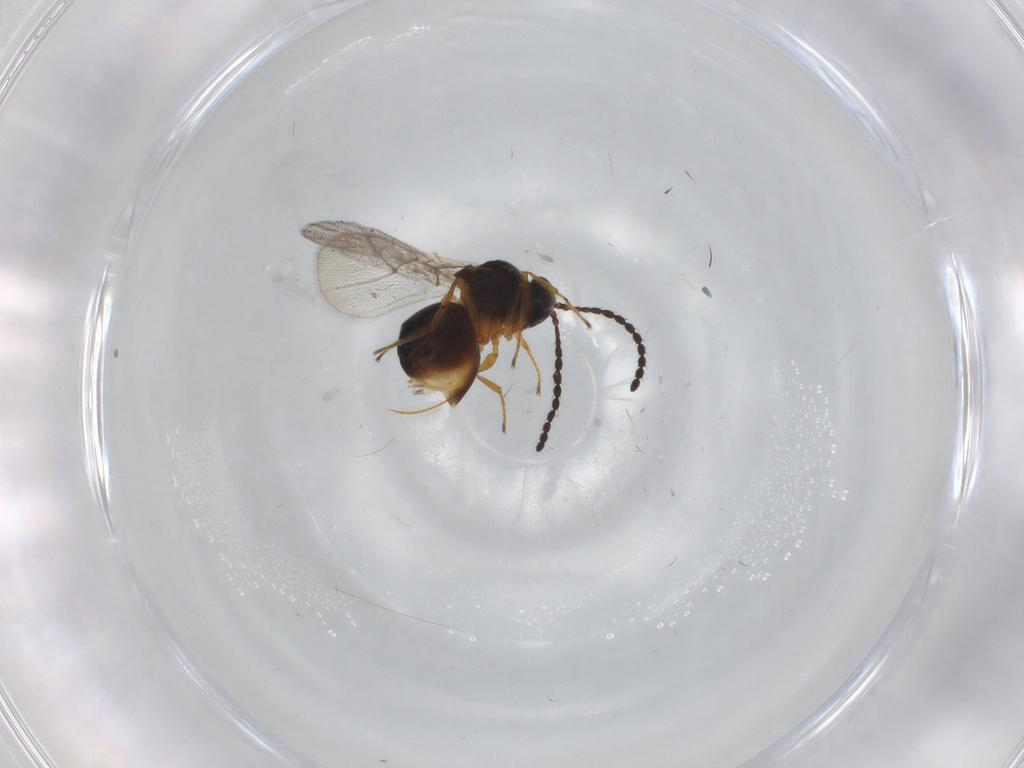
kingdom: Animalia
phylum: Arthropoda
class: Insecta
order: Hymenoptera
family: Figitidae
